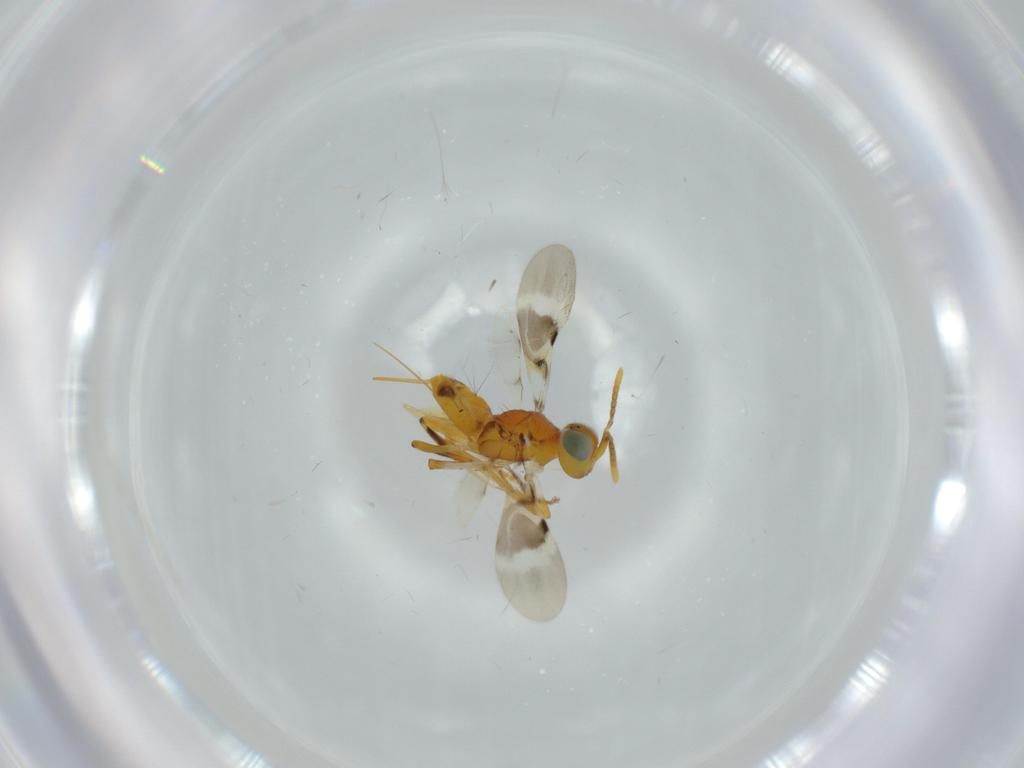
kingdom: Animalia
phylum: Arthropoda
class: Insecta
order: Hymenoptera
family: Encyrtidae
